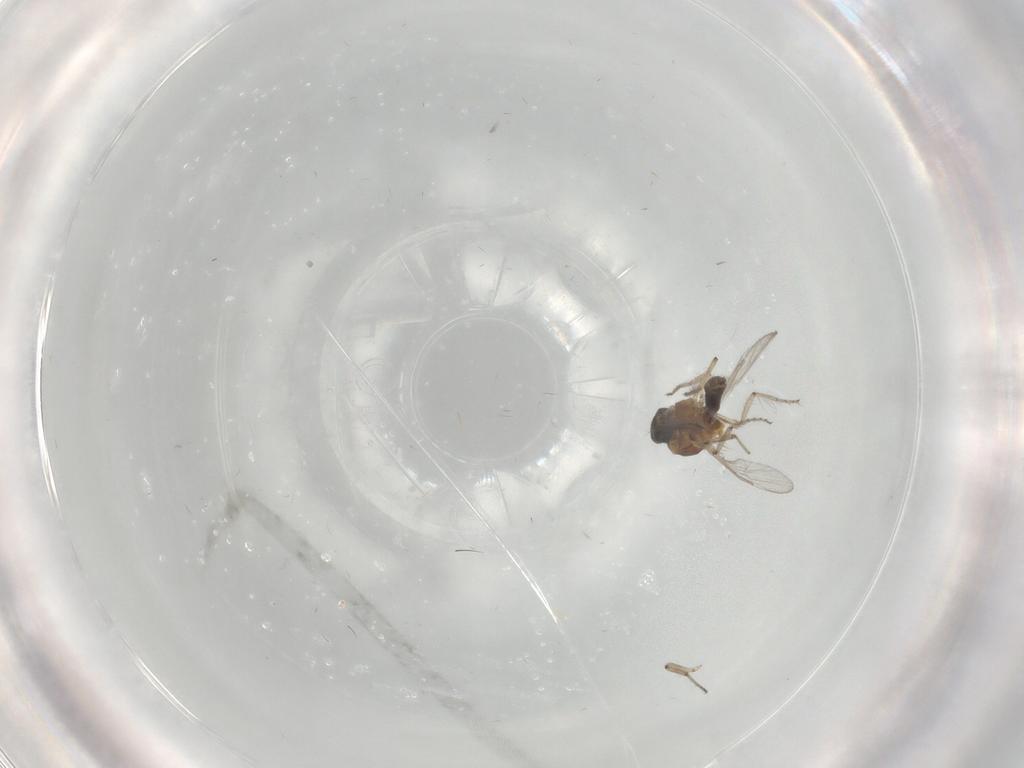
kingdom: Animalia
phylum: Arthropoda
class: Insecta
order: Diptera
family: Ceratopogonidae
